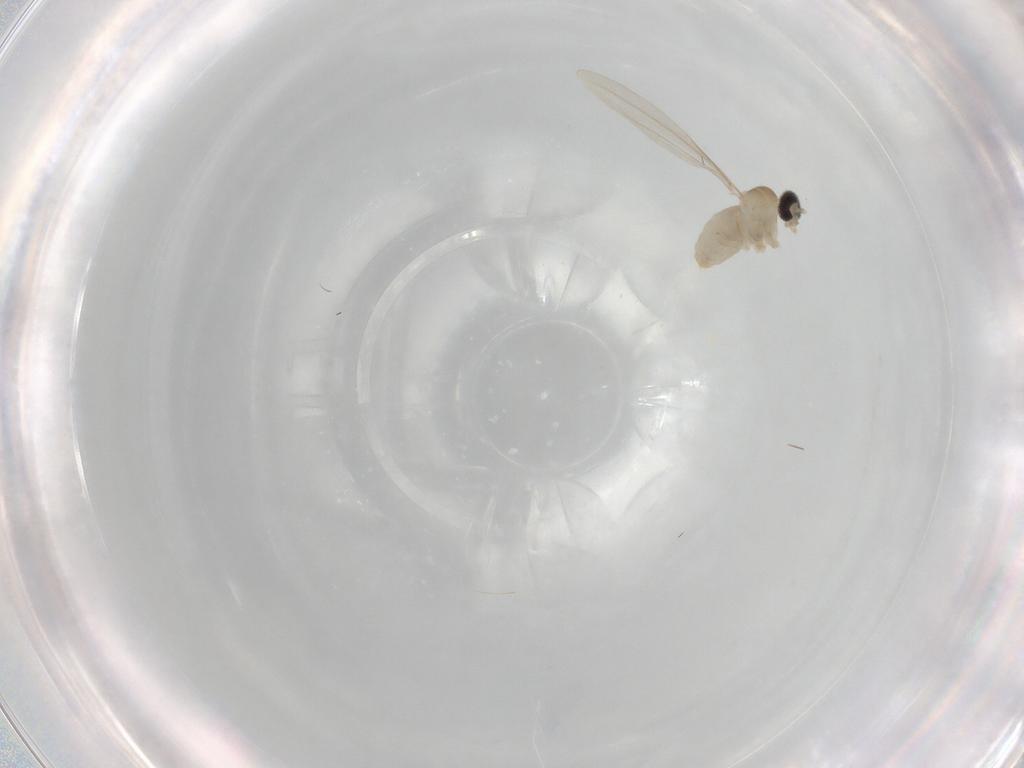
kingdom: Animalia
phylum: Arthropoda
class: Insecta
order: Diptera
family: Cecidomyiidae
